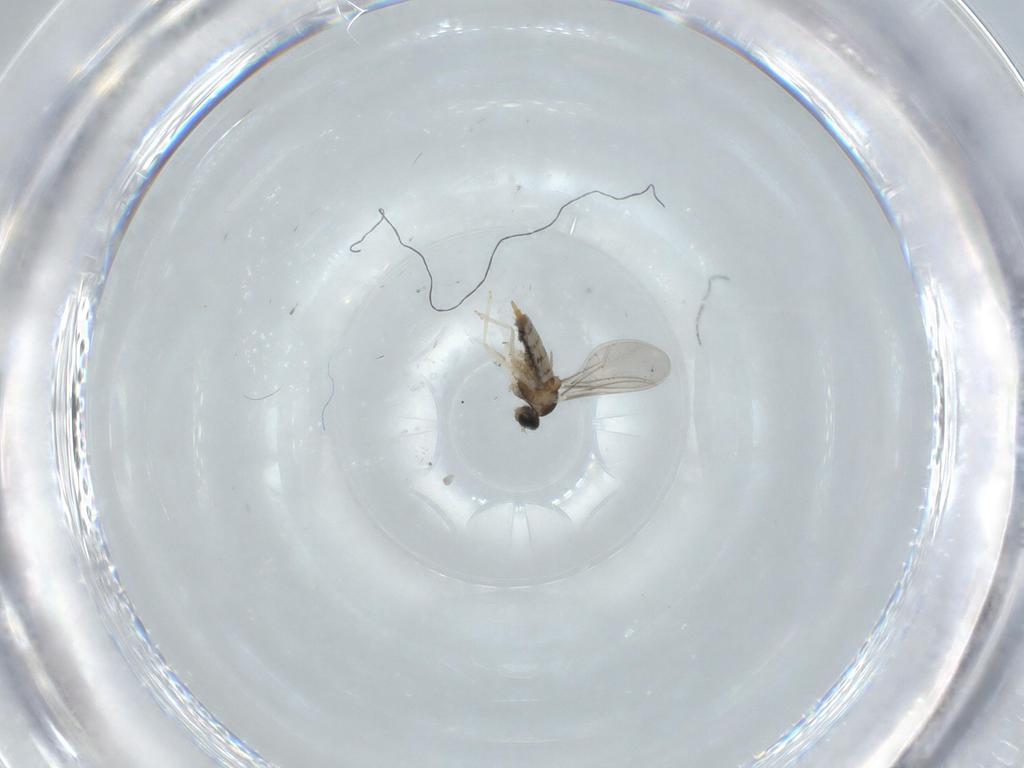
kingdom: Animalia
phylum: Arthropoda
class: Insecta
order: Diptera
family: Cecidomyiidae
